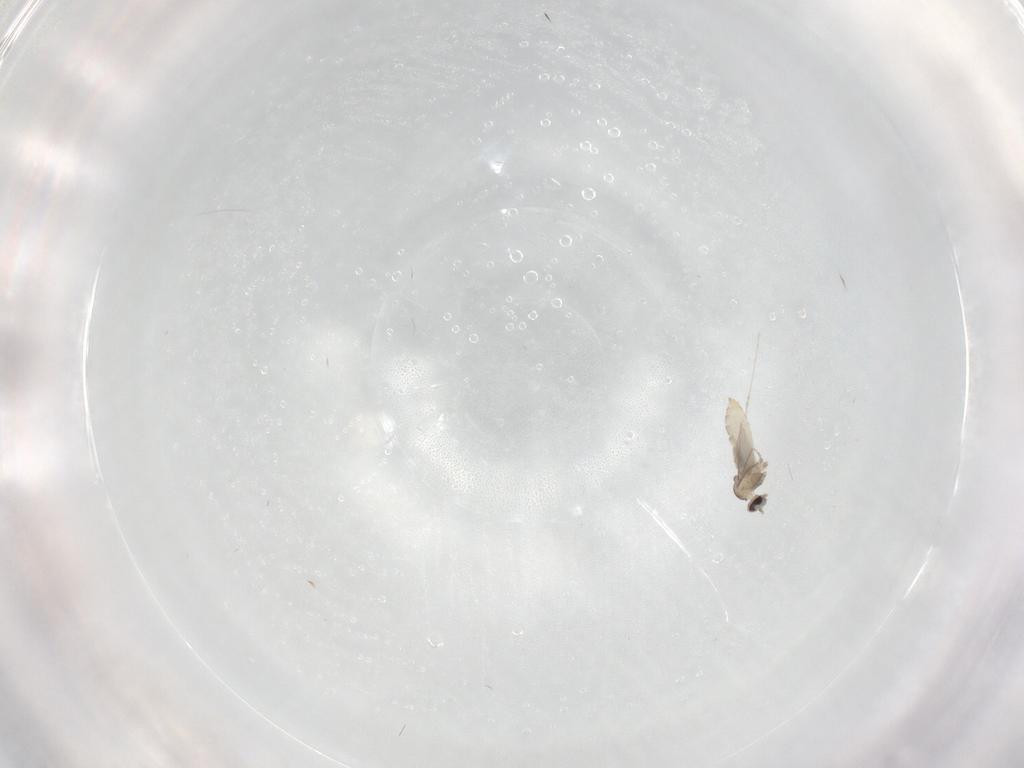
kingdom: Animalia
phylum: Arthropoda
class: Insecta
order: Diptera
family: Cecidomyiidae
